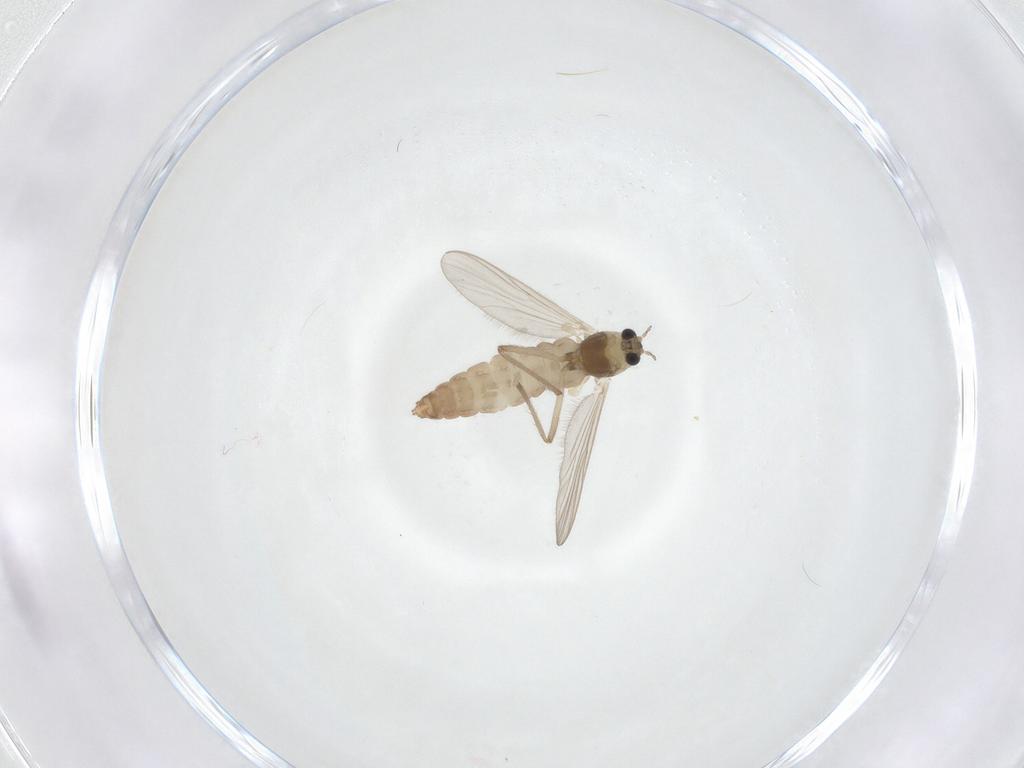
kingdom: Animalia
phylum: Arthropoda
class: Insecta
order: Diptera
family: Chironomidae
